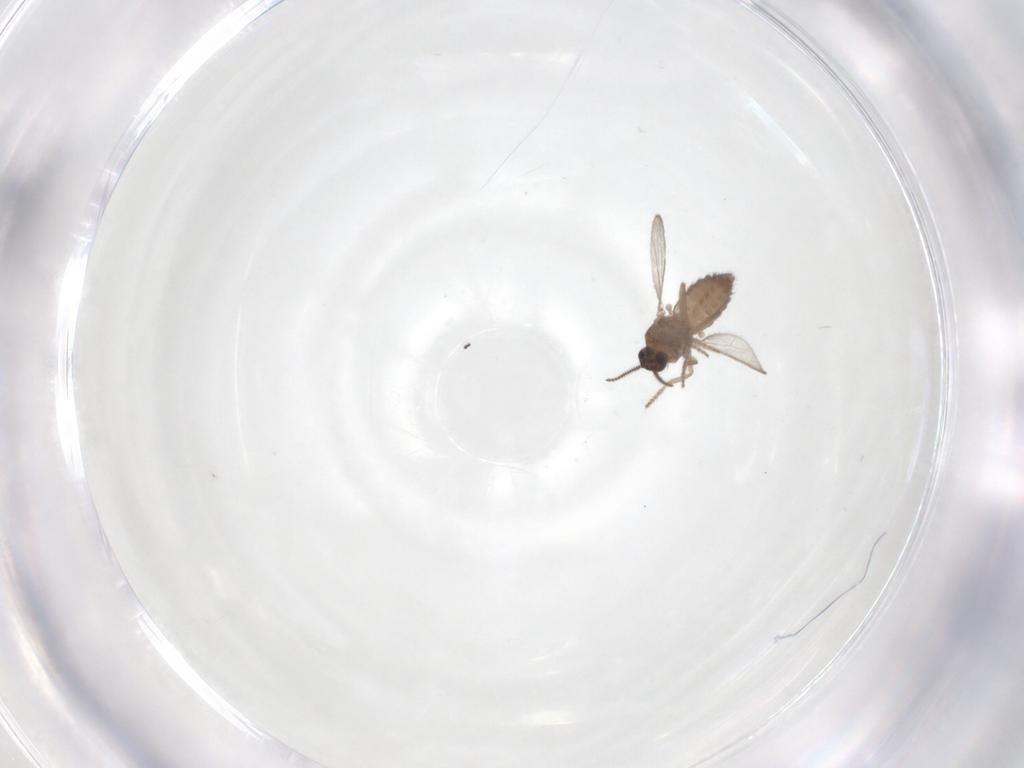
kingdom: Animalia
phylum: Arthropoda
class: Insecta
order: Diptera
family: Ceratopogonidae
